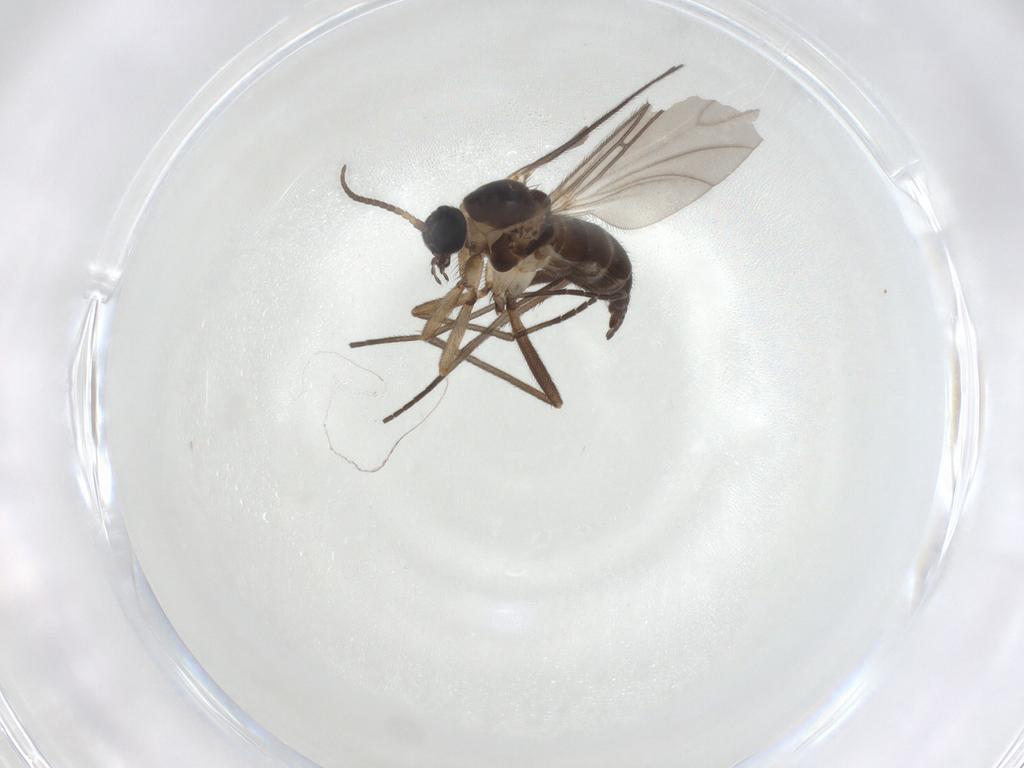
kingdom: Animalia
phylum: Arthropoda
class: Insecta
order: Diptera
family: Sciaridae
